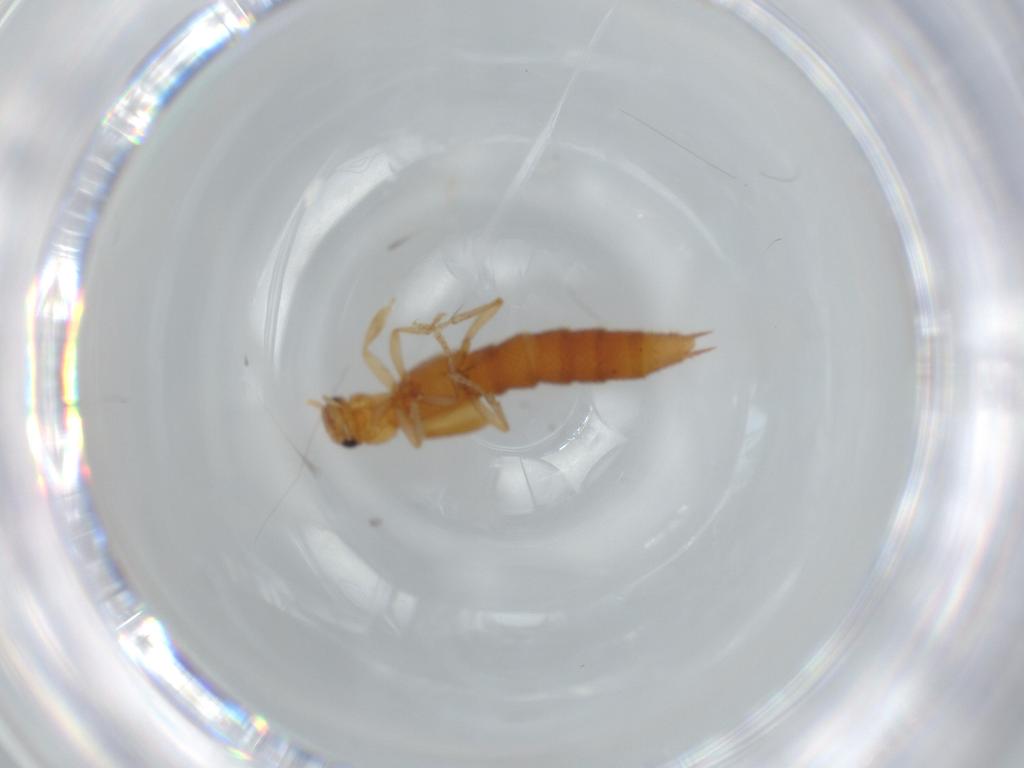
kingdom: Animalia
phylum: Arthropoda
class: Insecta
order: Coleoptera
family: Staphylinidae
